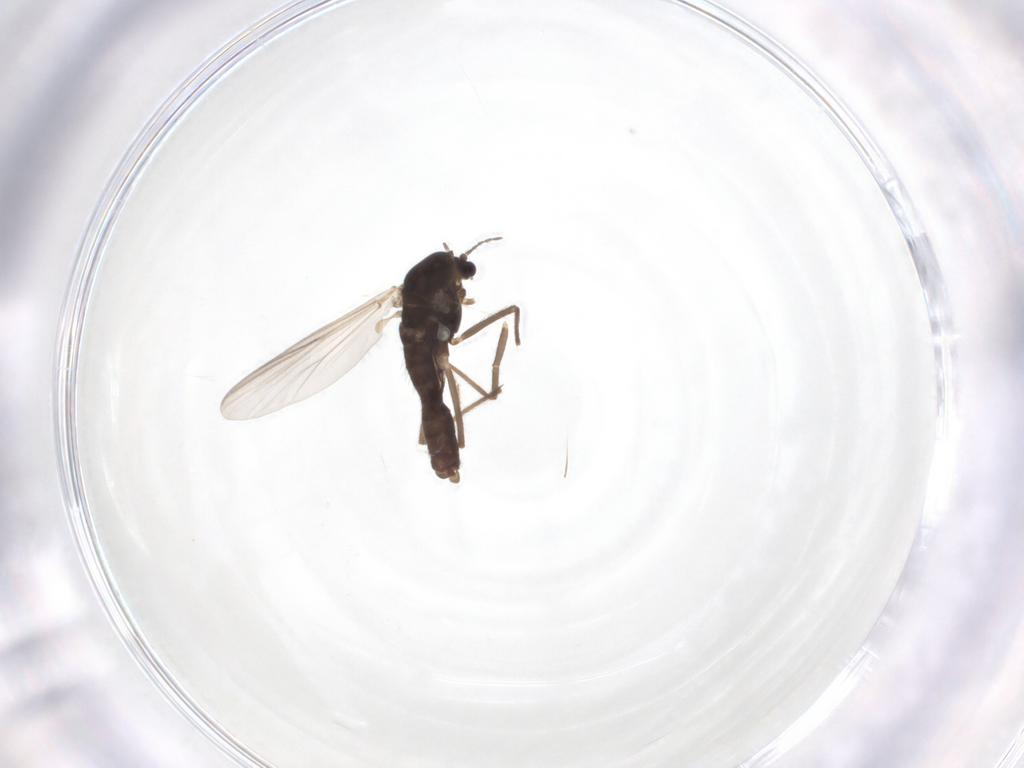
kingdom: Animalia
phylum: Arthropoda
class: Insecta
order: Diptera
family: Chironomidae
